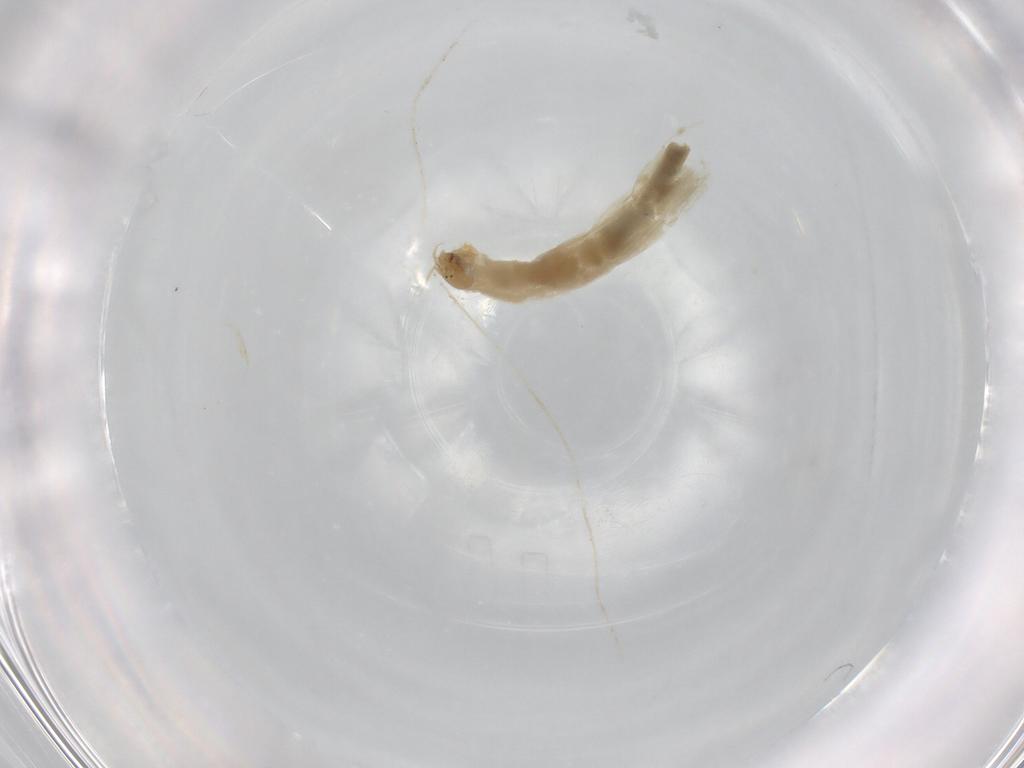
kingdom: Animalia
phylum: Arthropoda
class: Insecta
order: Diptera
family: Chironomidae
